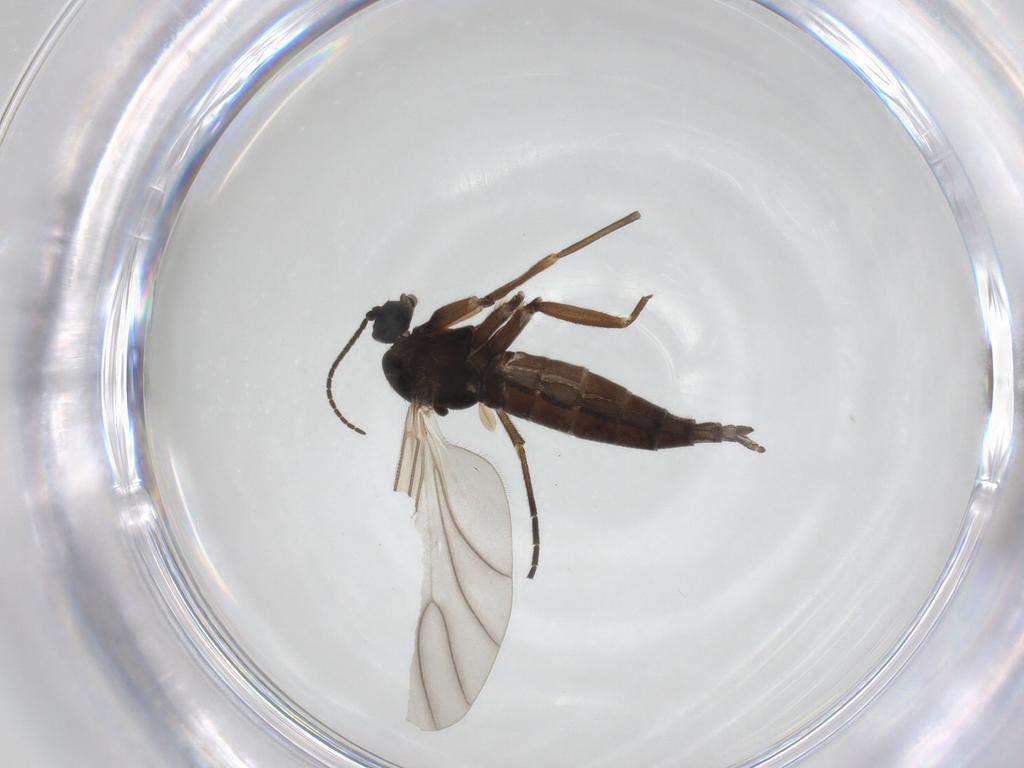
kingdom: Animalia
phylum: Arthropoda
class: Insecta
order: Diptera
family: Sciaridae
